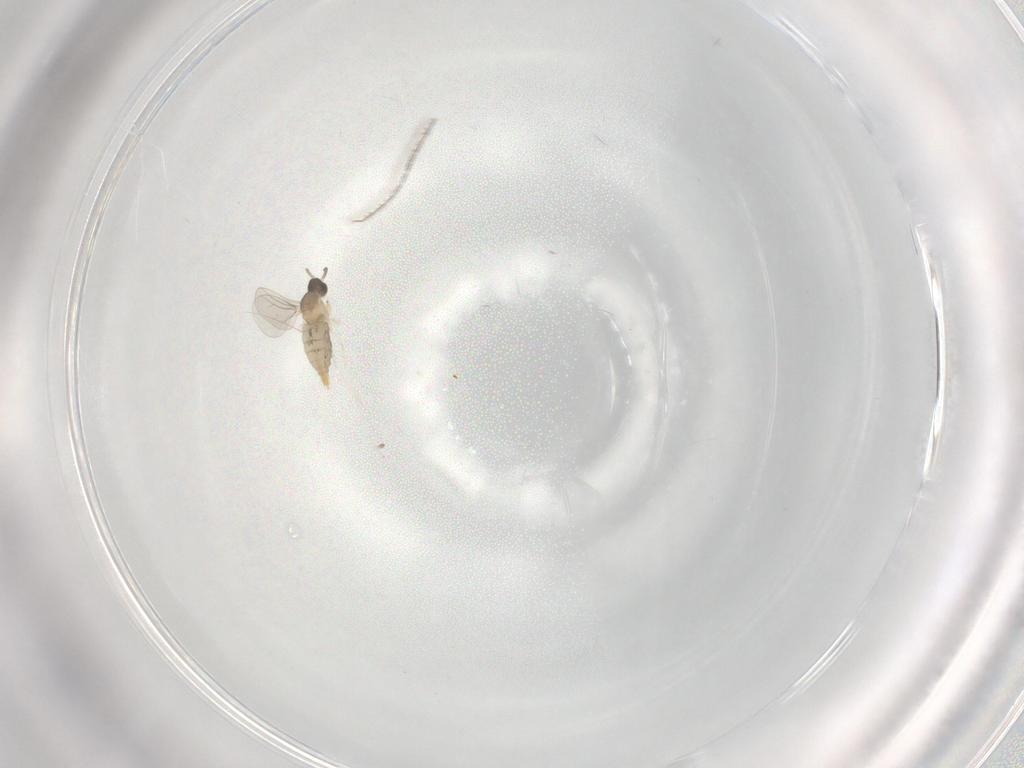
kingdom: Animalia
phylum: Arthropoda
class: Insecta
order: Diptera
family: Cecidomyiidae
